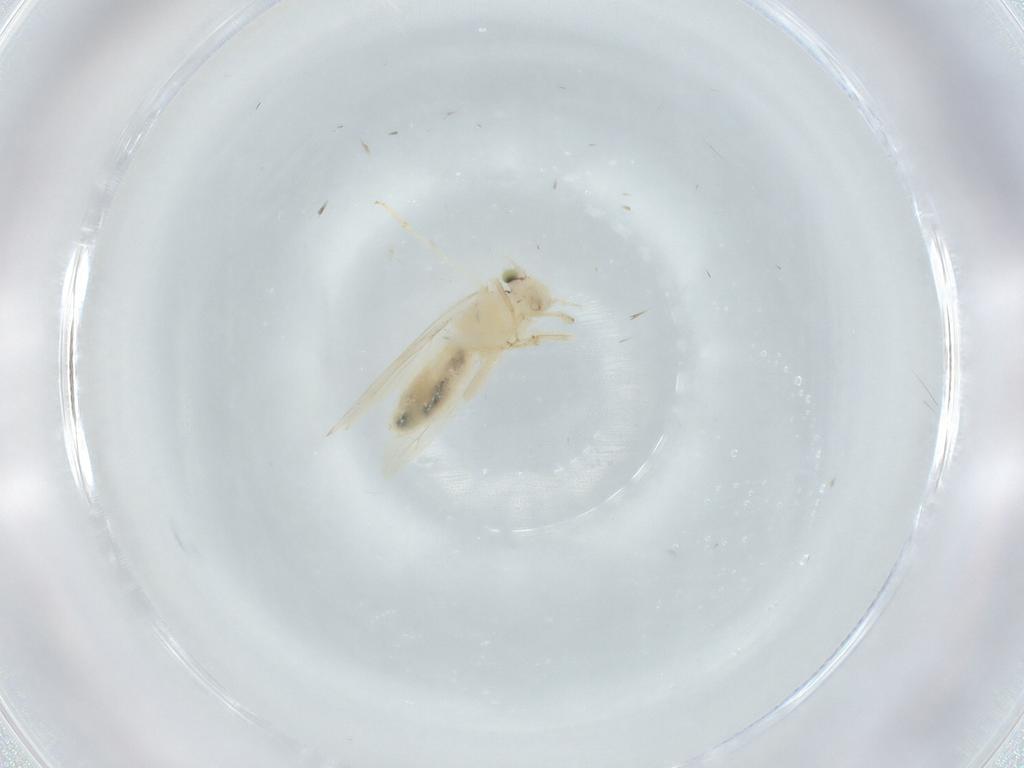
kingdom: Animalia
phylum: Arthropoda
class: Insecta
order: Psocodea
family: Lepidopsocidae
